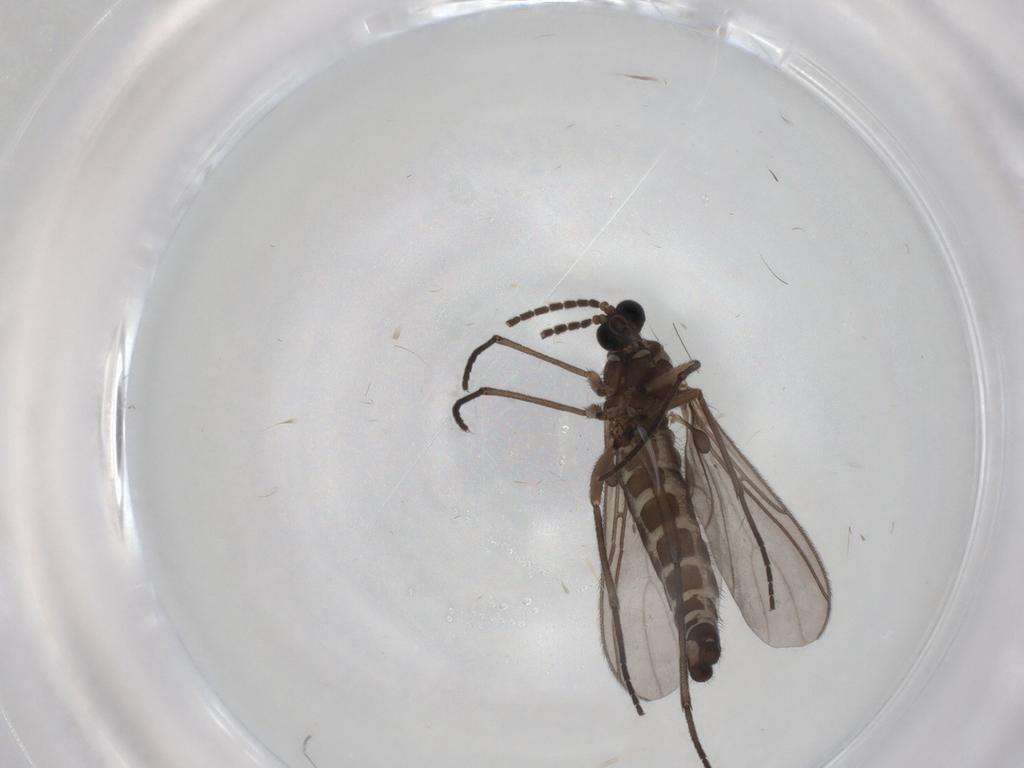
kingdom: Animalia
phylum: Arthropoda
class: Insecta
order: Diptera
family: Sciaridae
